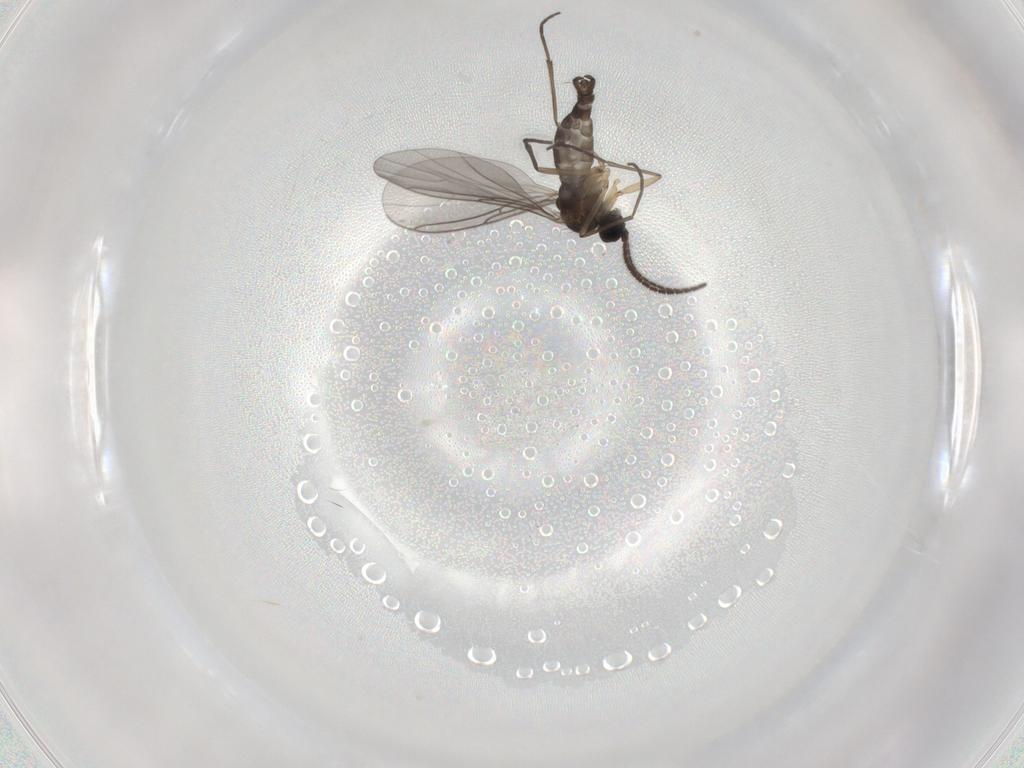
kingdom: Animalia
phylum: Arthropoda
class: Insecta
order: Diptera
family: Sciaridae
